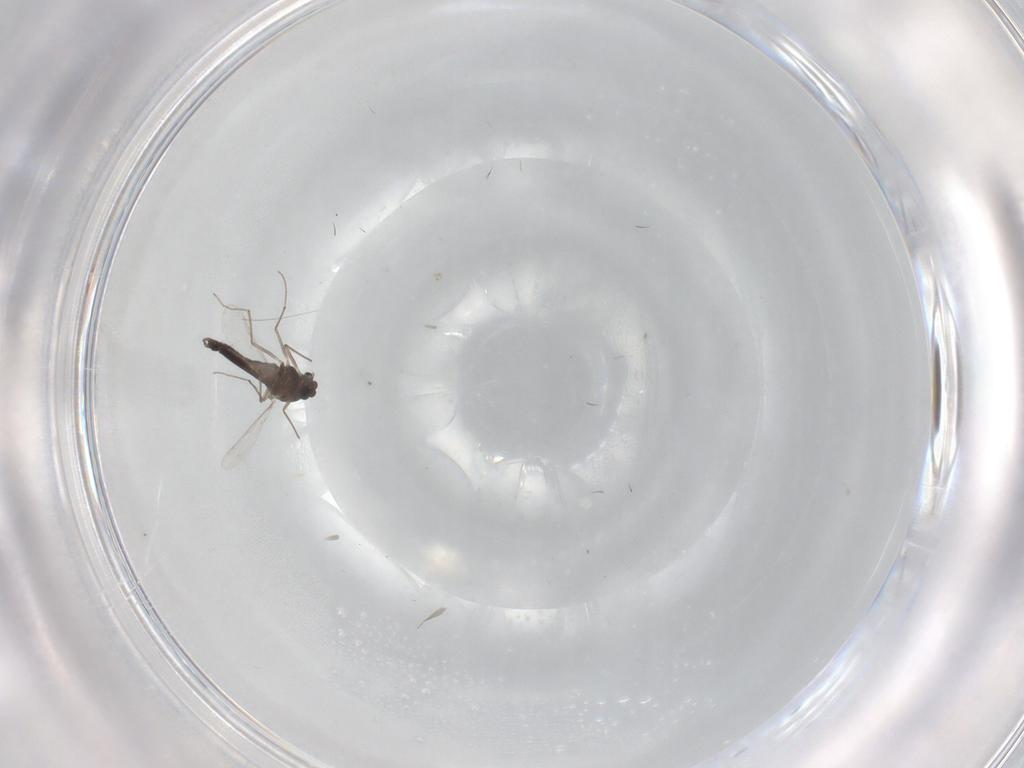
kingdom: Animalia
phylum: Arthropoda
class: Insecta
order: Diptera
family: Chironomidae
